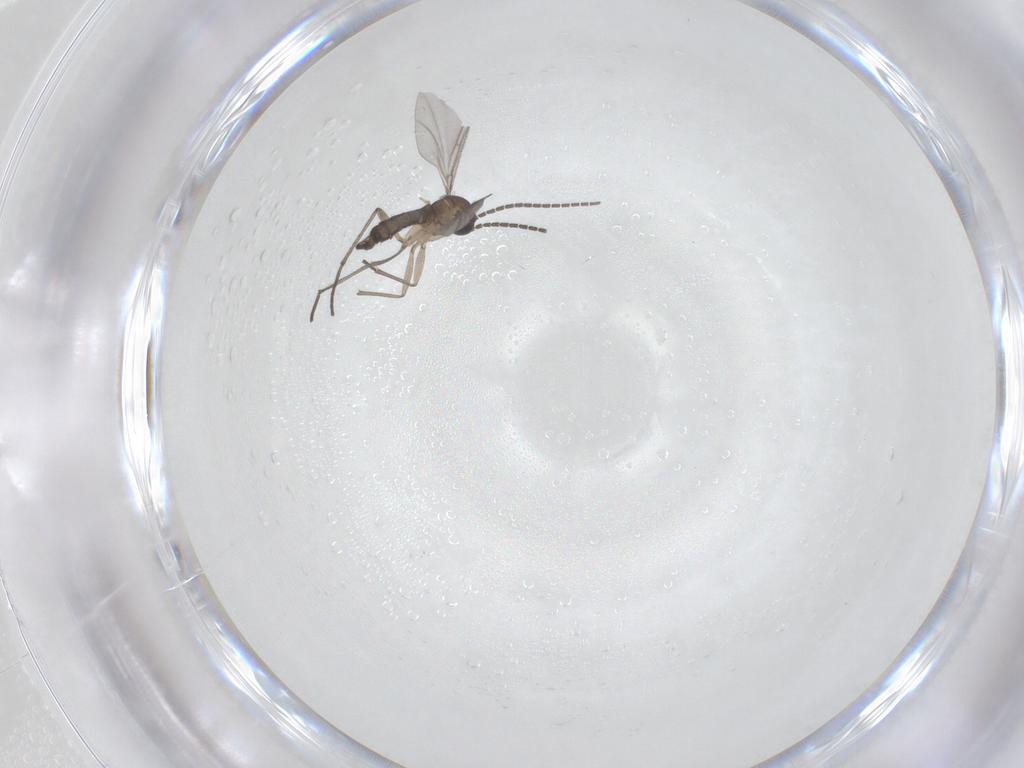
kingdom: Animalia
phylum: Arthropoda
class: Insecta
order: Diptera
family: Sciaridae
